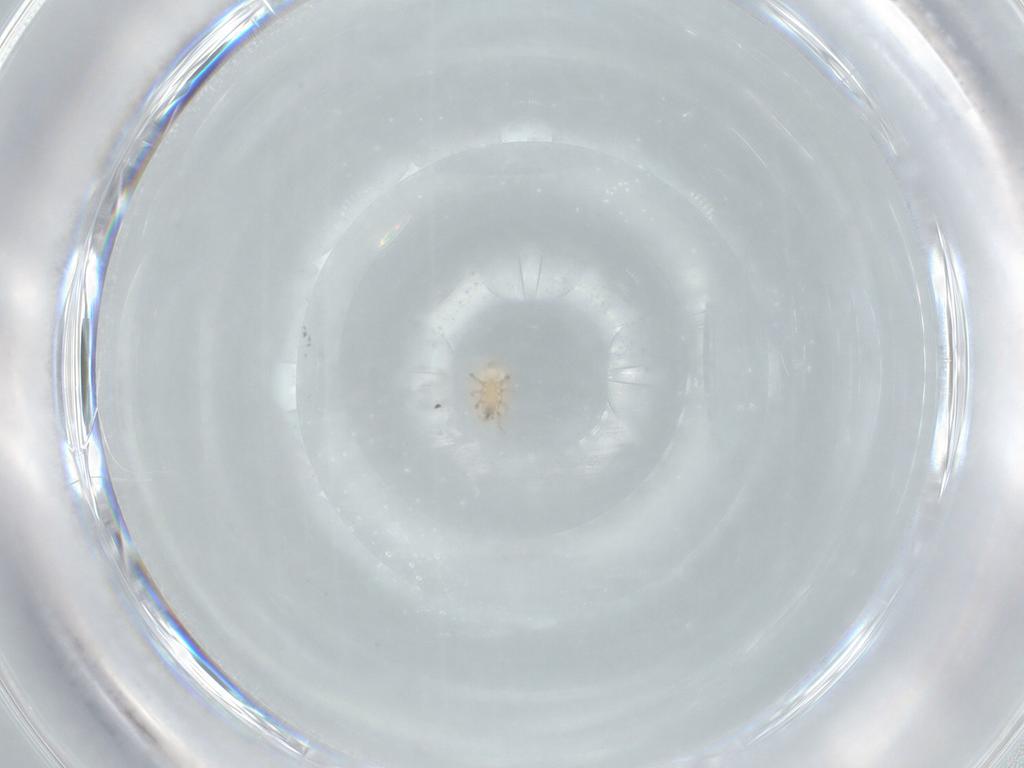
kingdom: Animalia
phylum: Arthropoda
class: Arachnida
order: Mesostigmata
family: Ascidae
